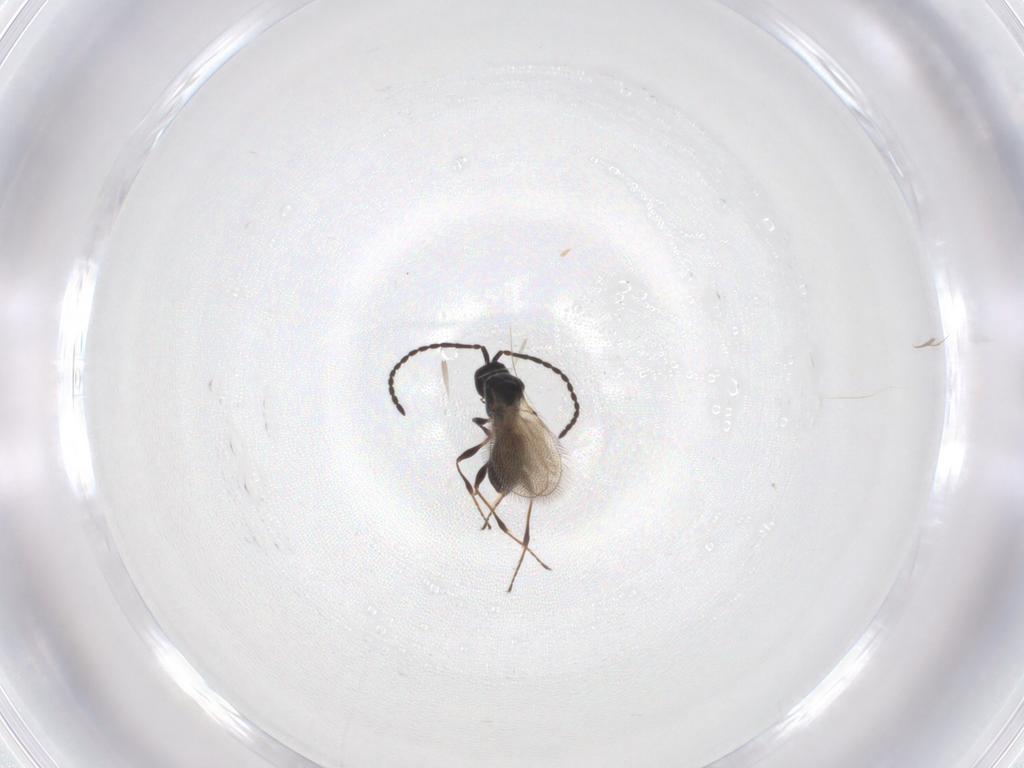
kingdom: Animalia
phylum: Arthropoda
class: Insecta
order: Hymenoptera
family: Diapriidae
